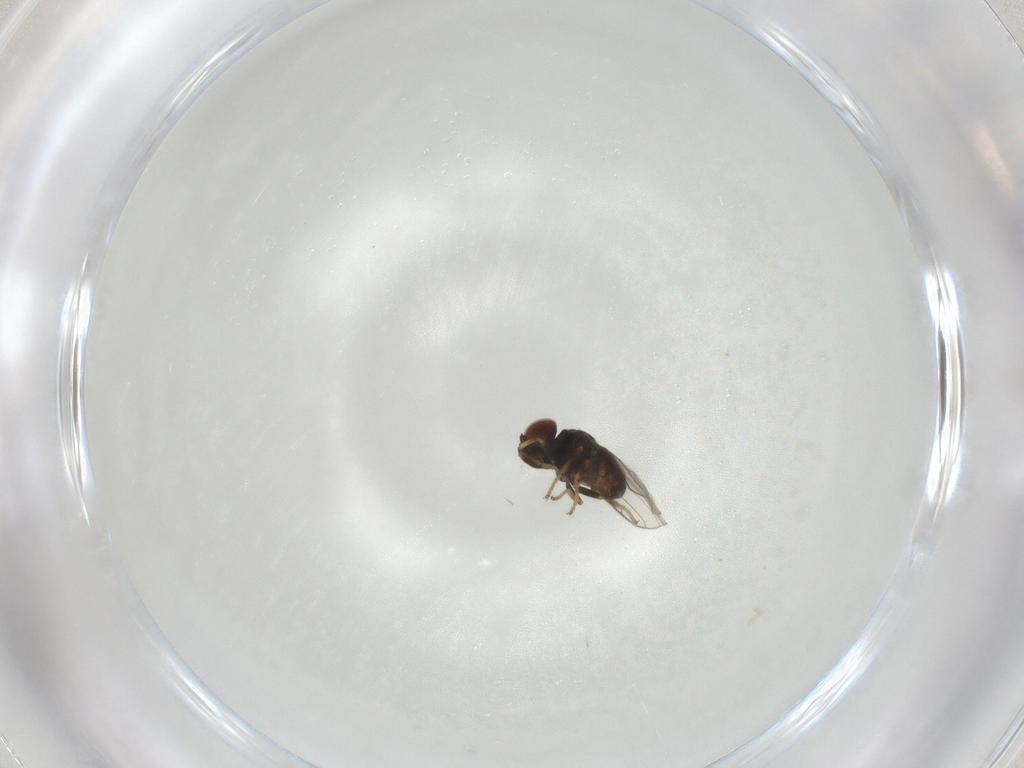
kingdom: Animalia
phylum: Arthropoda
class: Insecta
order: Diptera
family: Chloropidae
